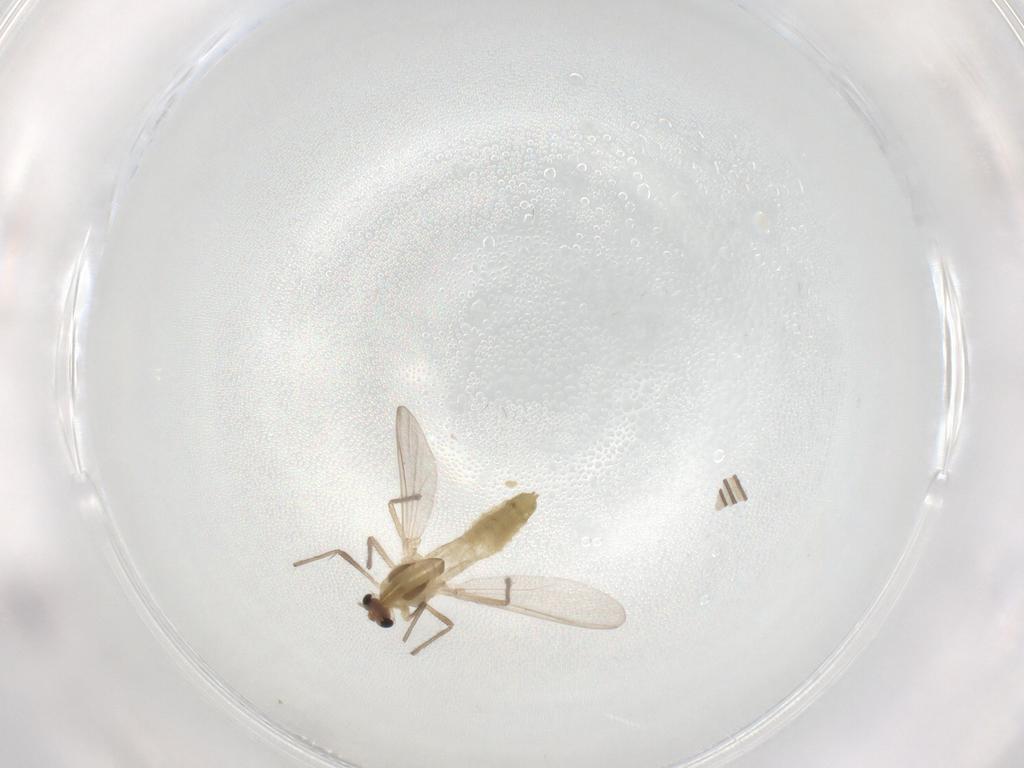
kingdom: Animalia
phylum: Arthropoda
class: Insecta
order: Diptera
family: Chironomidae
